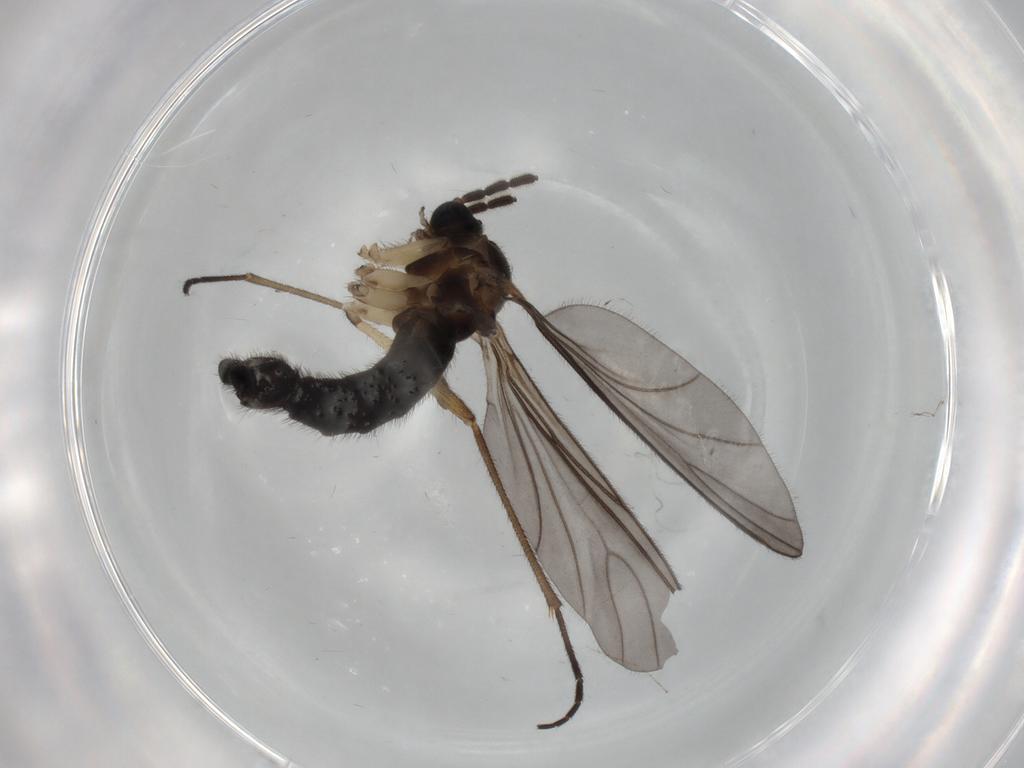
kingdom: Animalia
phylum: Arthropoda
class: Insecta
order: Diptera
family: Sciaridae
